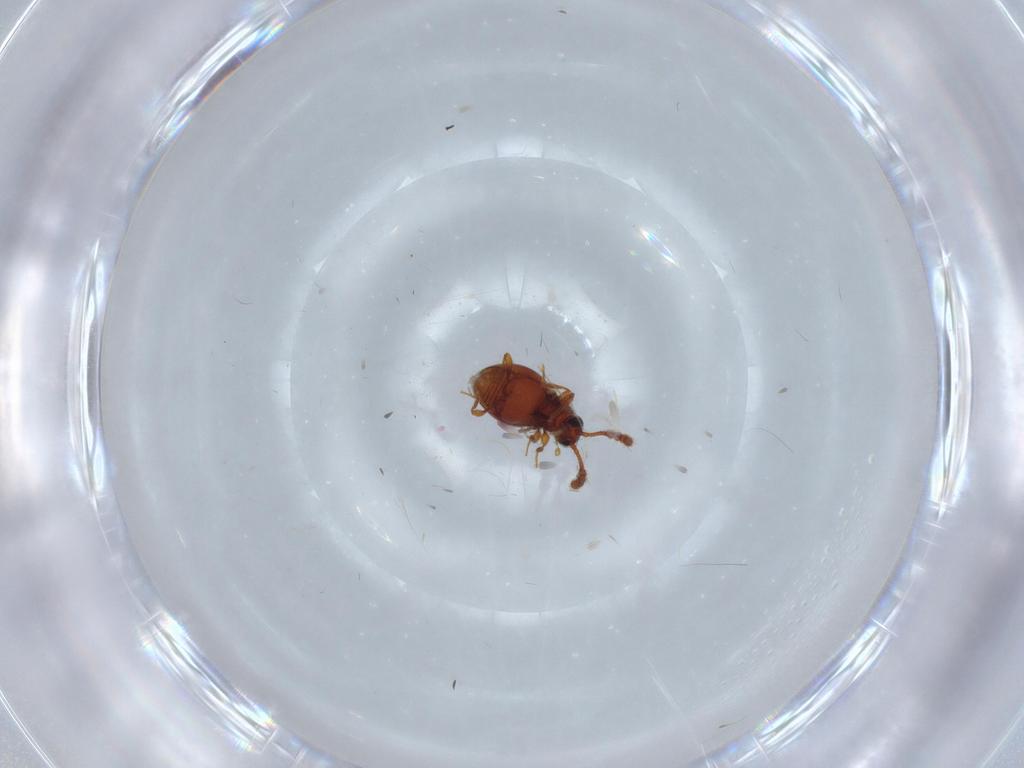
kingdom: Animalia
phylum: Arthropoda
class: Insecta
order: Coleoptera
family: Staphylinidae
